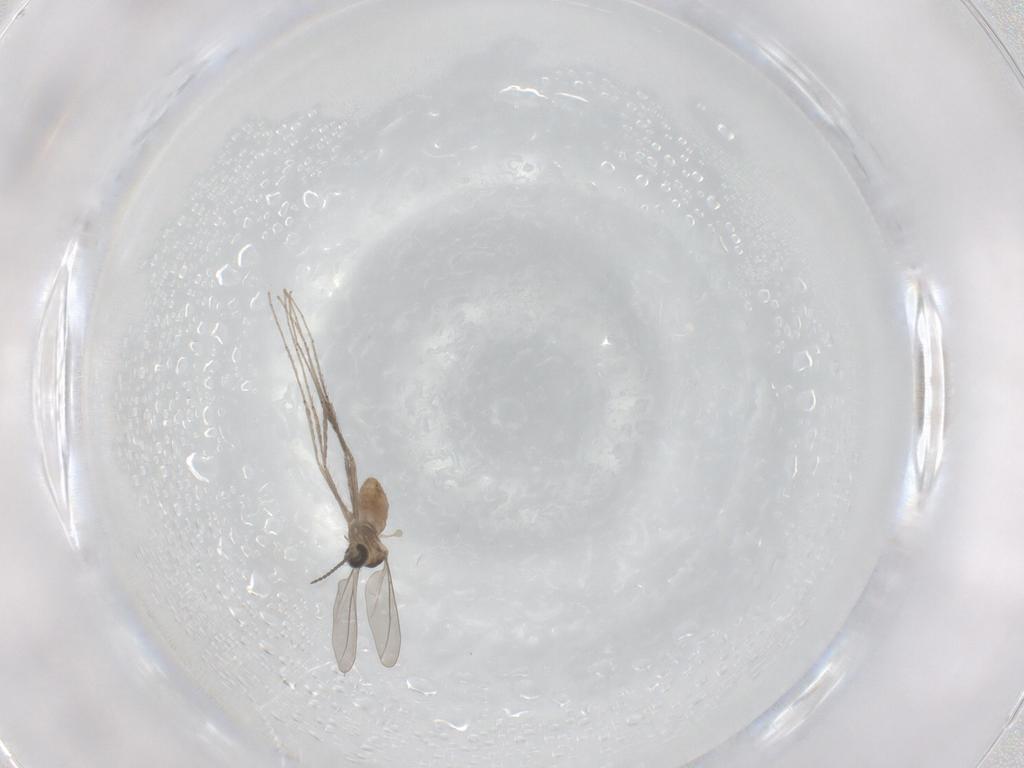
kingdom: Animalia
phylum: Arthropoda
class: Insecta
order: Diptera
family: Cecidomyiidae
